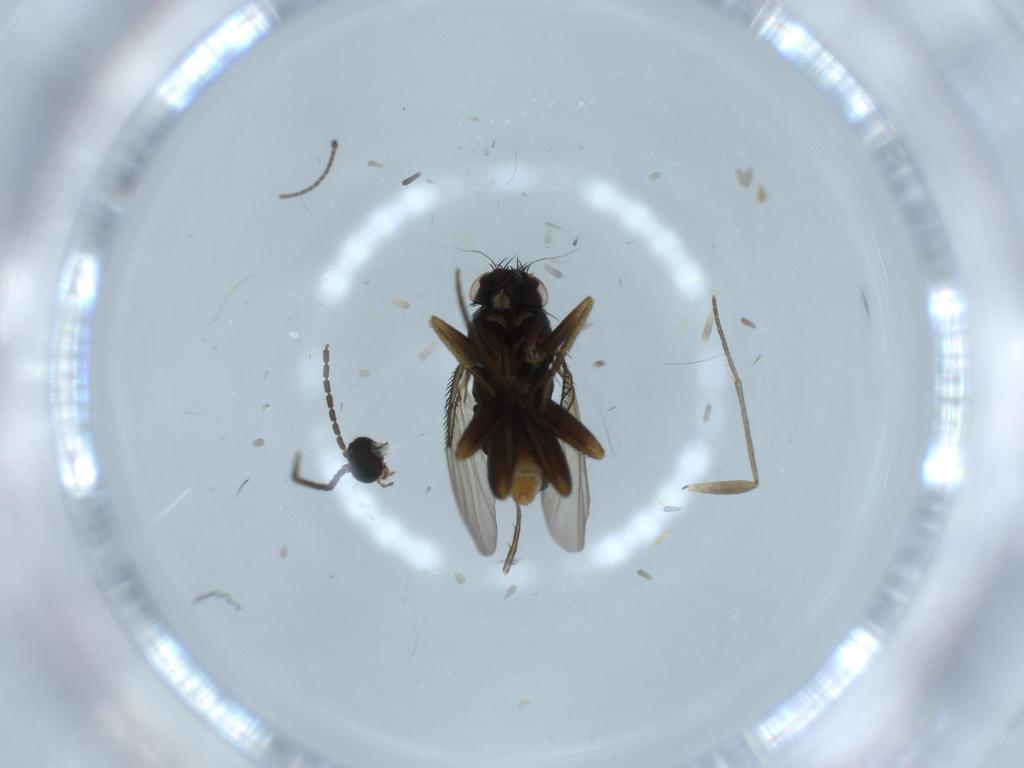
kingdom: Animalia
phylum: Arthropoda
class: Insecta
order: Diptera
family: Phoridae
